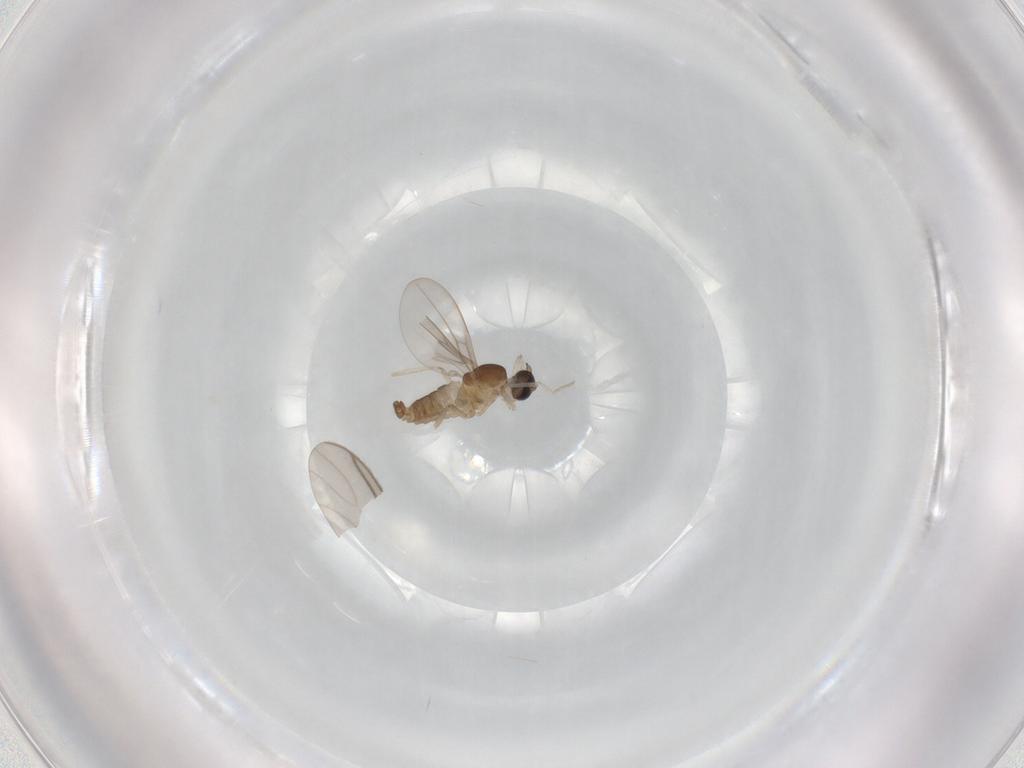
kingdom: Animalia
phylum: Arthropoda
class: Insecta
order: Diptera
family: Cecidomyiidae
